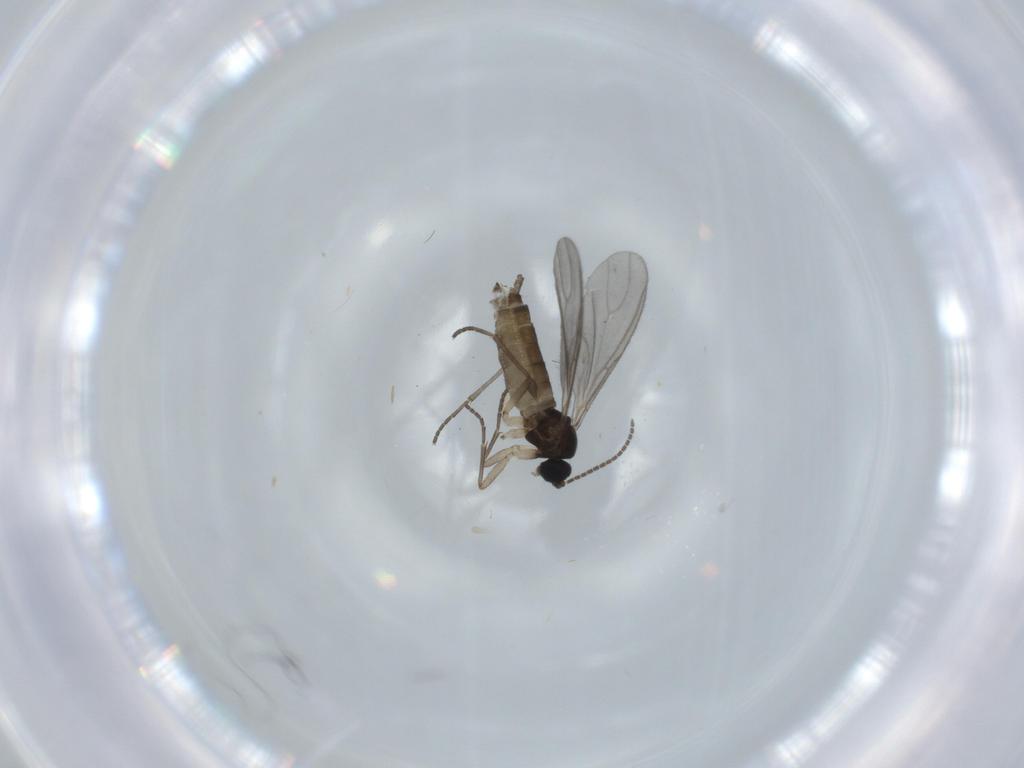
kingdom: Animalia
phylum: Arthropoda
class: Insecta
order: Diptera
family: Sciaridae
